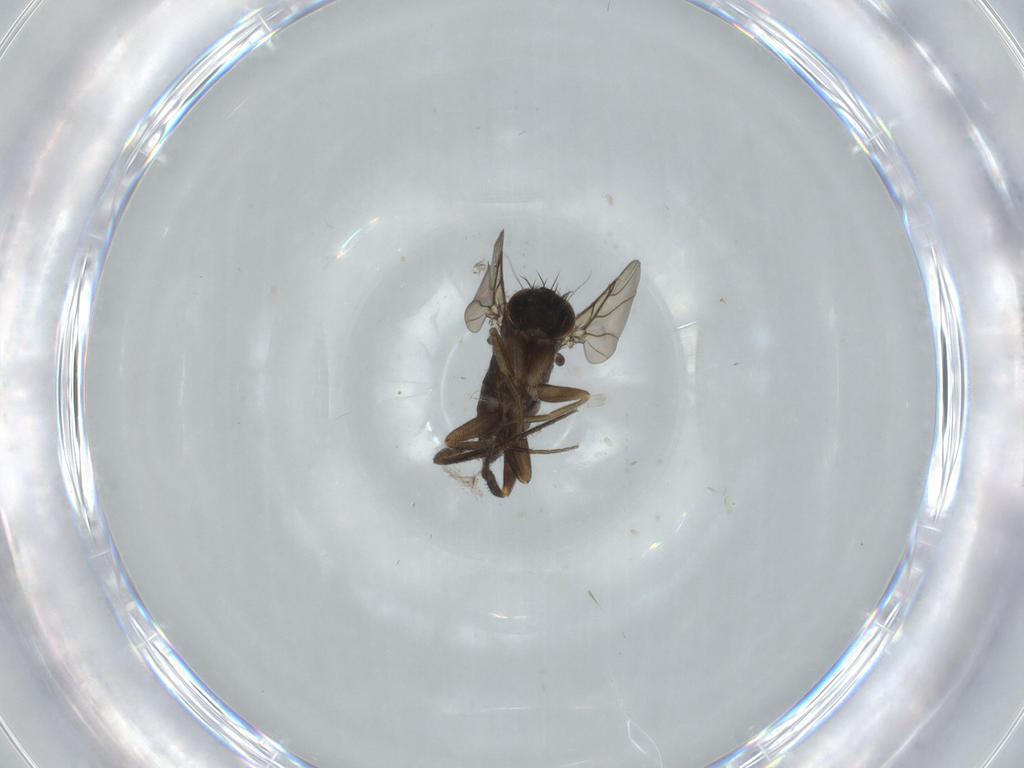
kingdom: Animalia
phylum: Arthropoda
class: Insecta
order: Diptera
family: Phoridae
